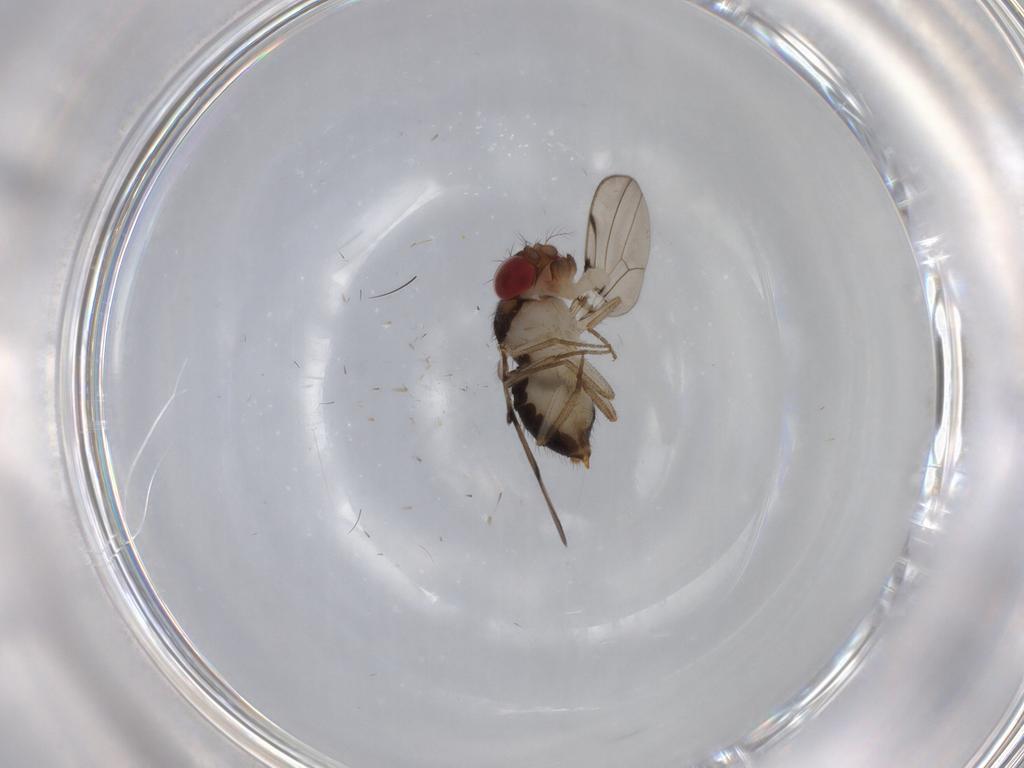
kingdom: Animalia
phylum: Arthropoda
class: Insecta
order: Diptera
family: Drosophilidae
